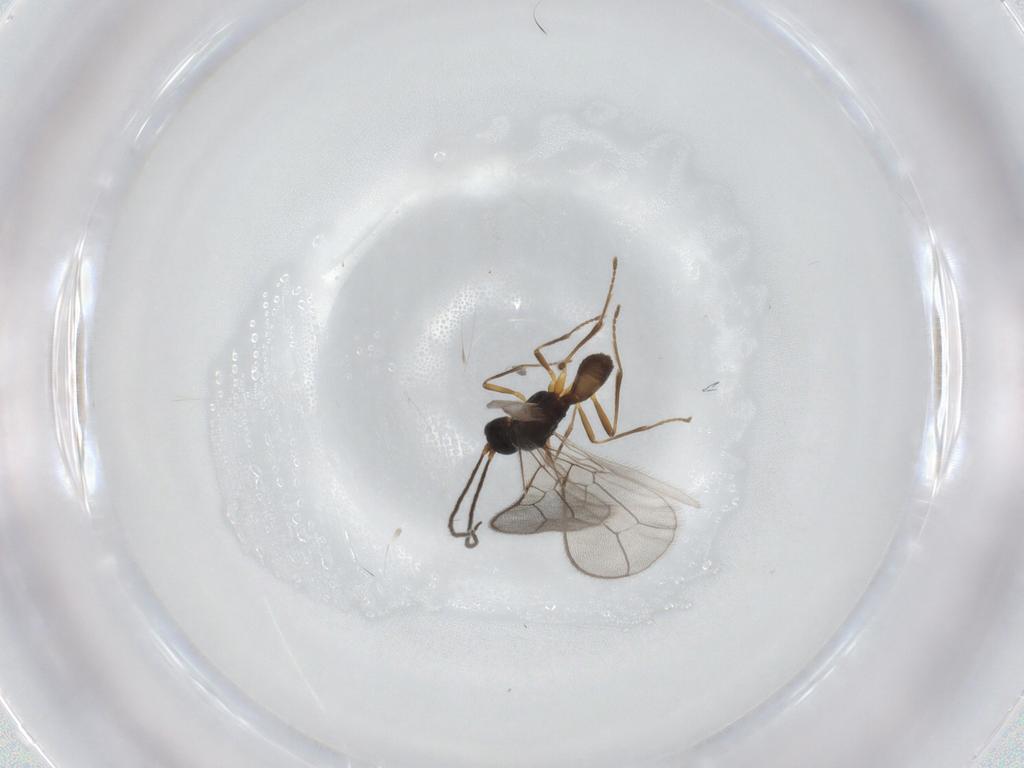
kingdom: Animalia
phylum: Arthropoda
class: Insecta
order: Hymenoptera
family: Braconidae
